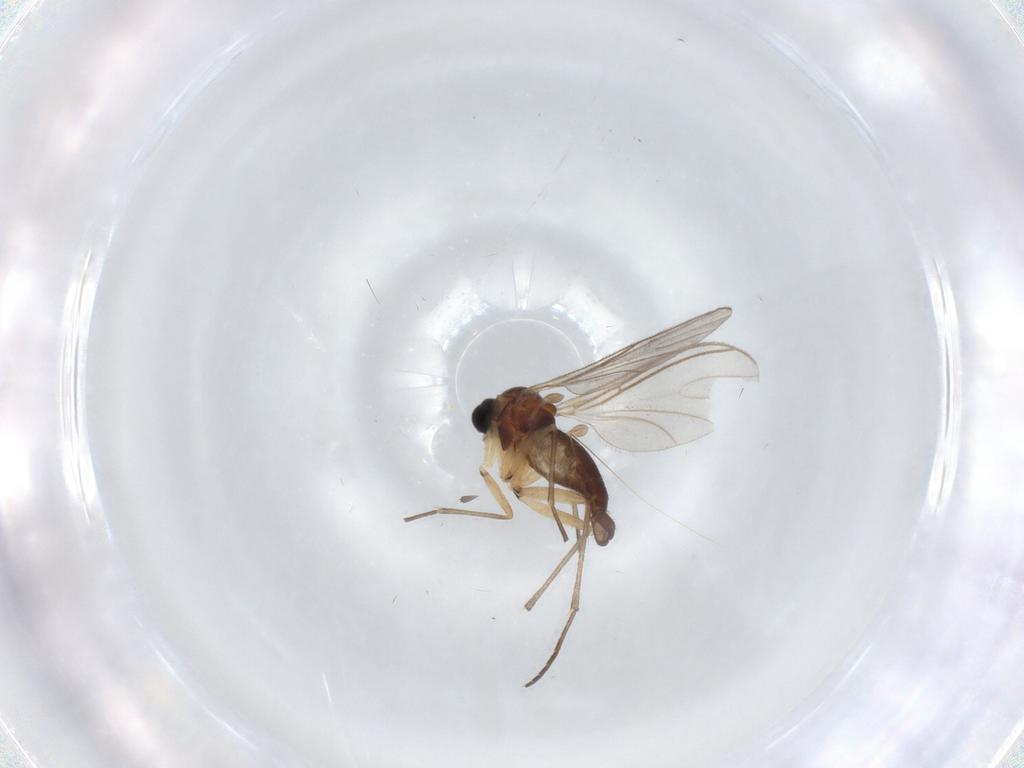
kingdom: Animalia
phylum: Arthropoda
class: Insecta
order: Diptera
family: Sciaridae
